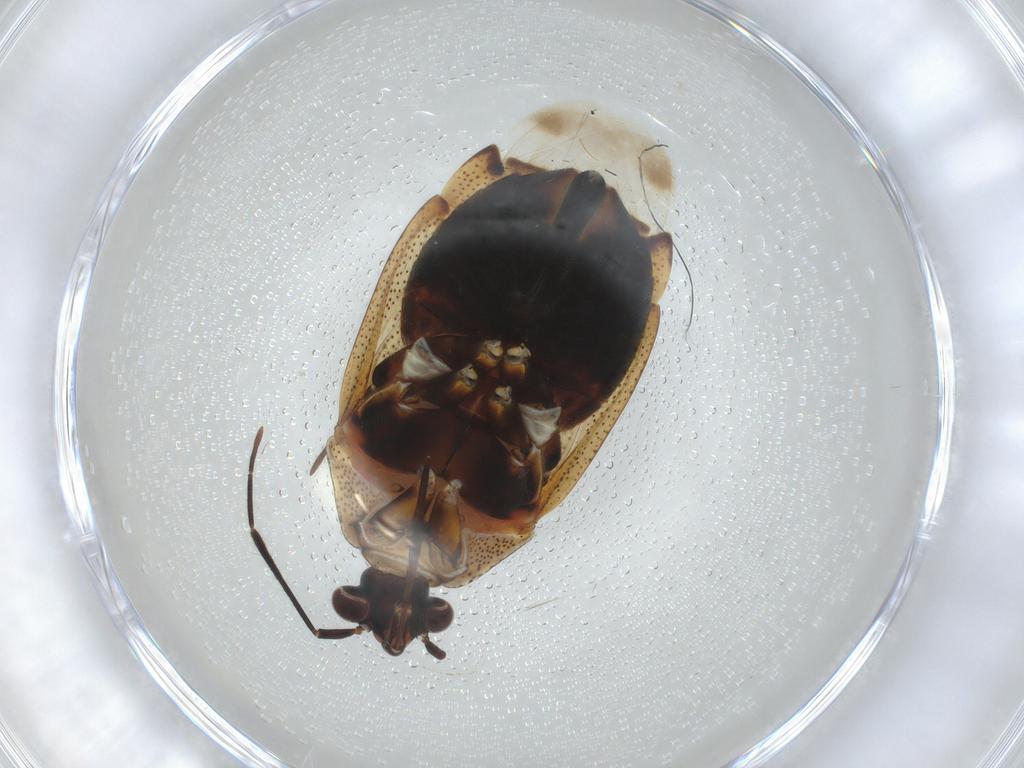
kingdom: Animalia
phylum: Arthropoda
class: Insecta
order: Hemiptera
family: Miridae
